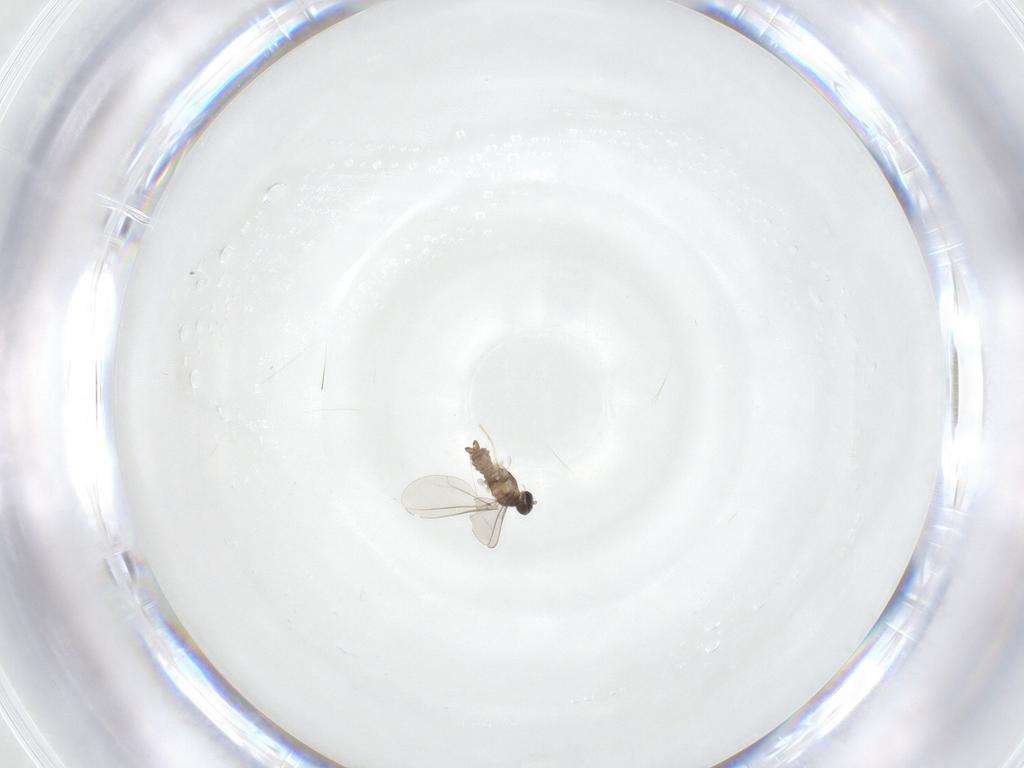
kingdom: Animalia
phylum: Arthropoda
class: Insecta
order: Diptera
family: Cecidomyiidae
